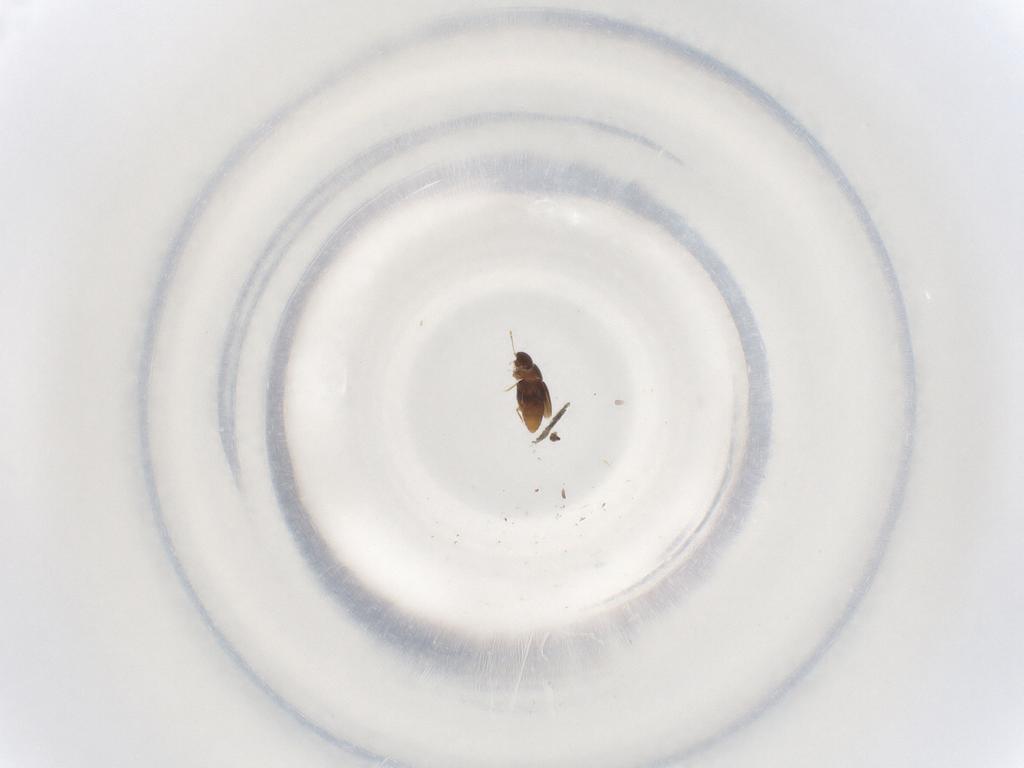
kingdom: Animalia
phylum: Arthropoda
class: Insecta
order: Coleoptera
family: Ptiliidae
